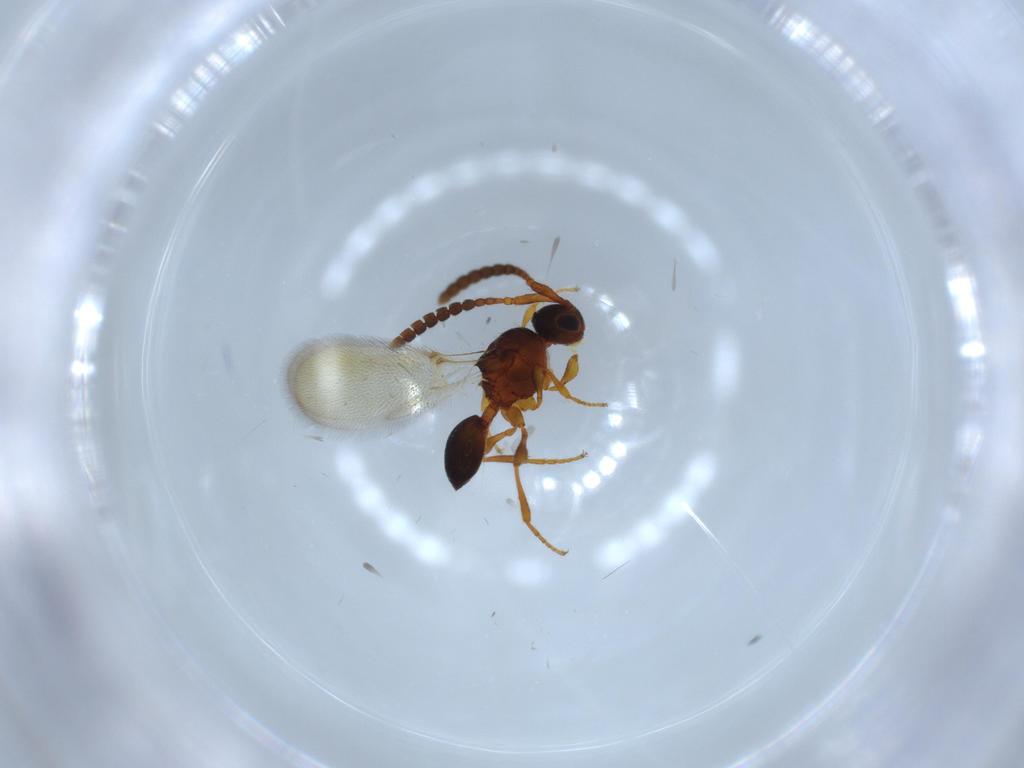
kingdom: Animalia
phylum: Arthropoda
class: Insecta
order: Hymenoptera
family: Diapriidae
